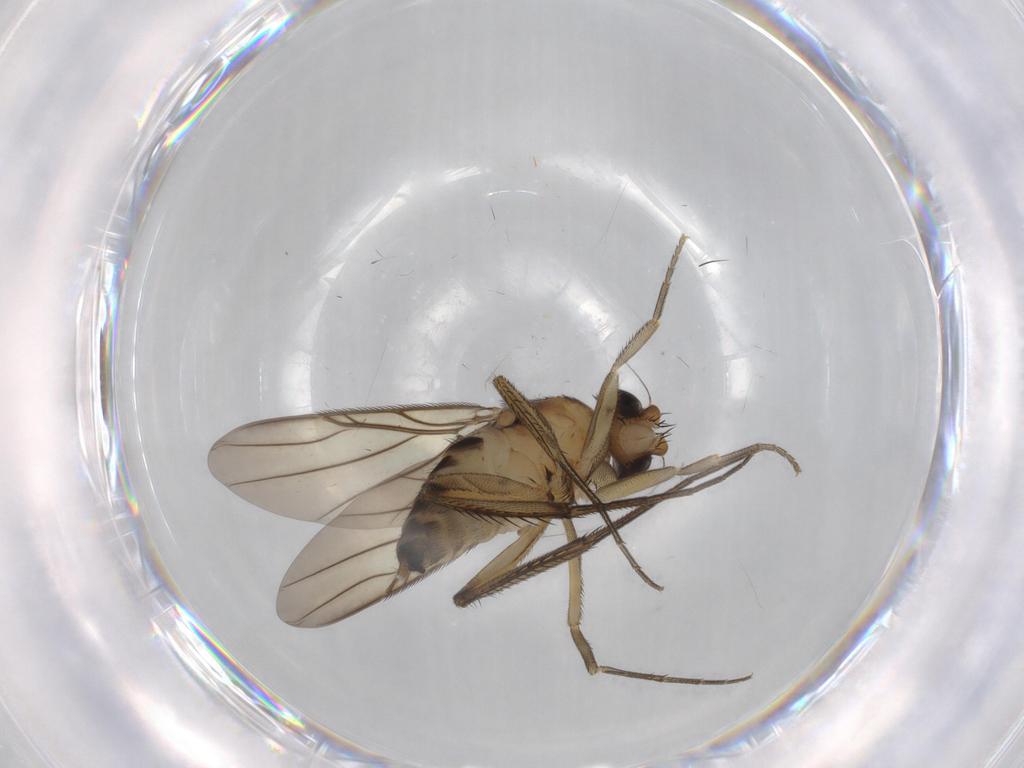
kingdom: Animalia
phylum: Arthropoda
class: Insecta
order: Diptera
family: Phoridae
